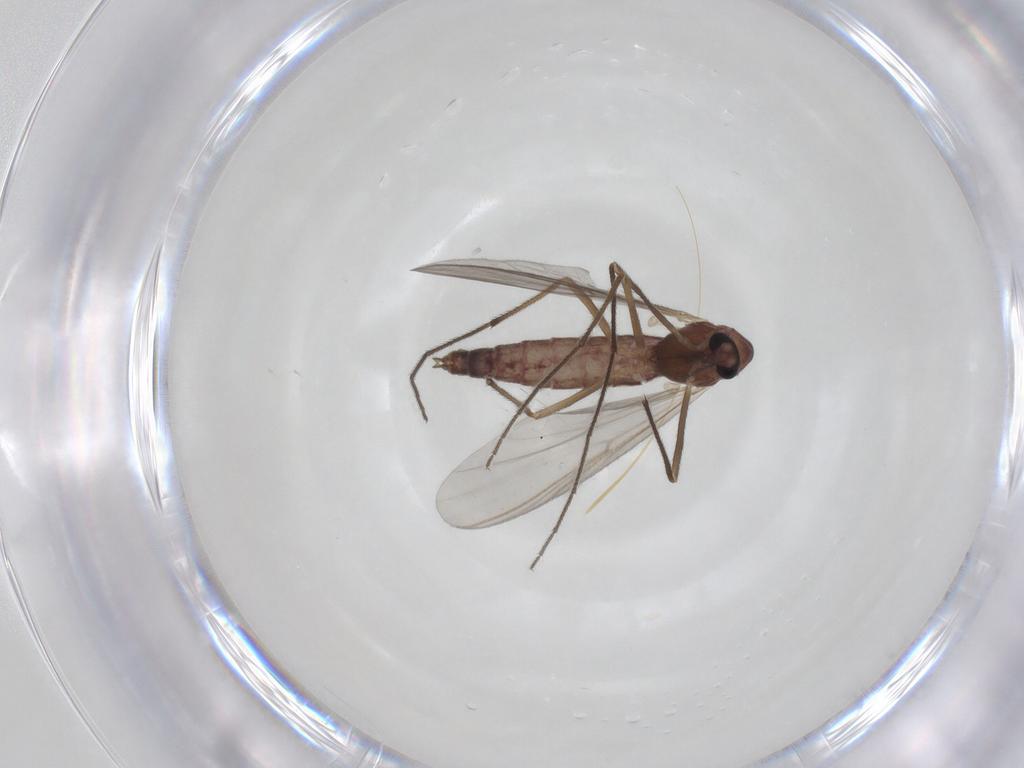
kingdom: Animalia
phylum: Arthropoda
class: Insecta
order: Diptera
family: Chironomidae
